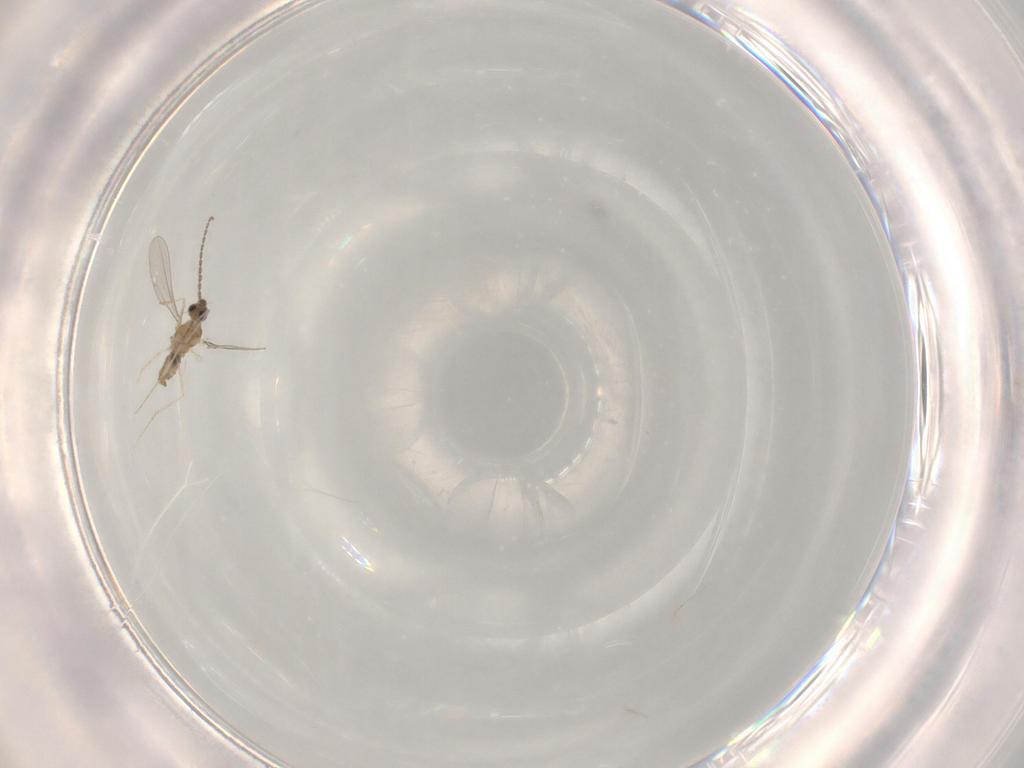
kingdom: Animalia
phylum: Arthropoda
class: Insecta
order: Diptera
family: Cecidomyiidae
